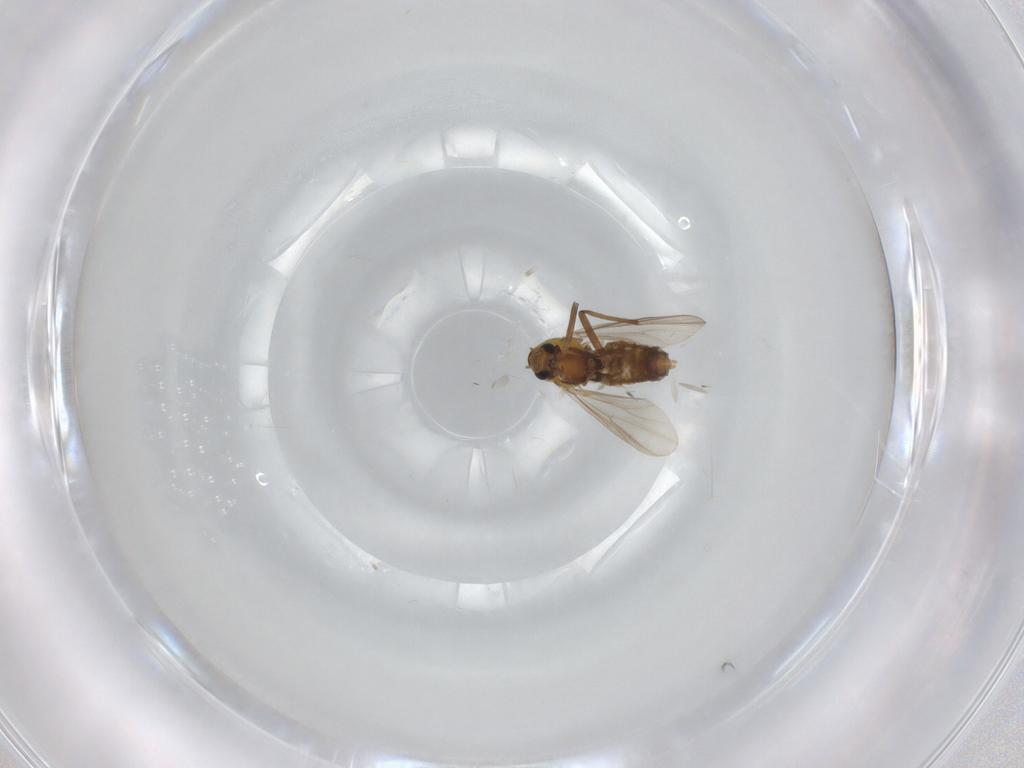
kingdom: Animalia
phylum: Arthropoda
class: Insecta
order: Diptera
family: Chironomidae
